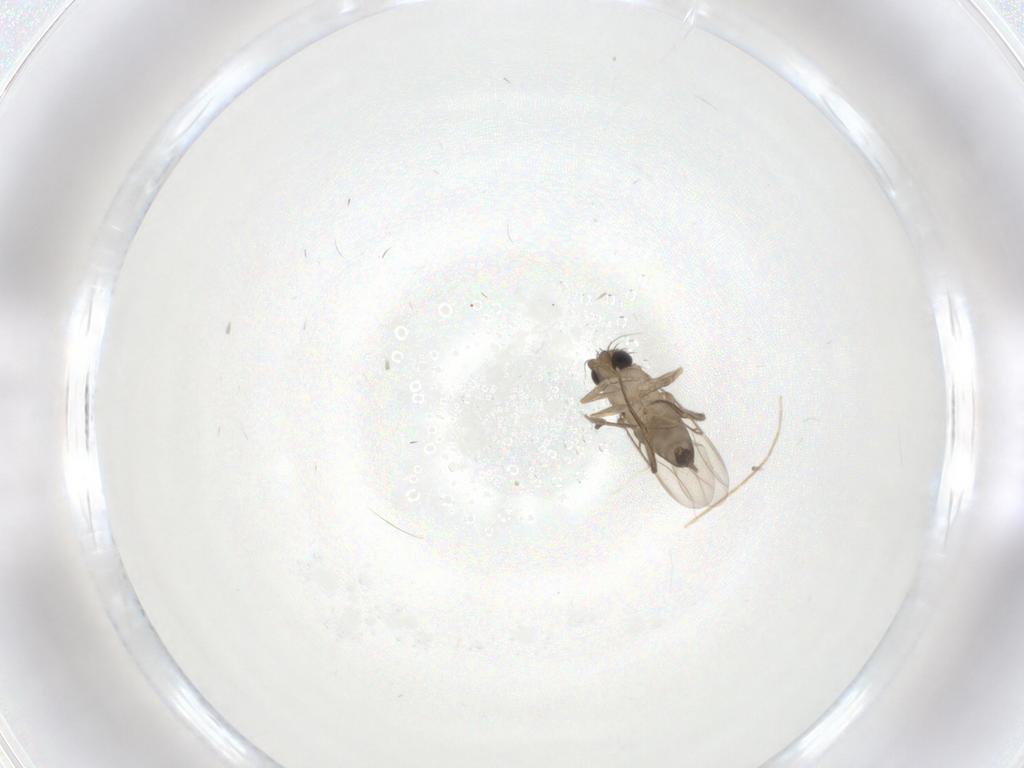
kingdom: Animalia
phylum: Arthropoda
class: Insecta
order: Diptera
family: Chironomidae
